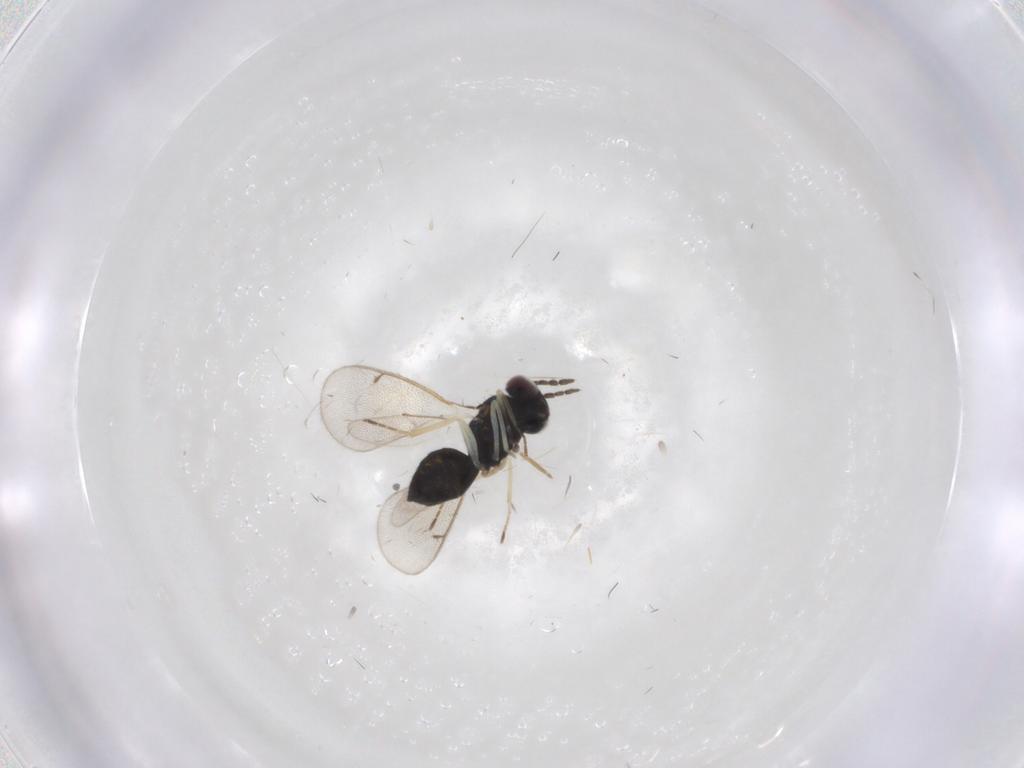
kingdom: Animalia
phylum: Arthropoda
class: Insecta
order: Hymenoptera
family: Eulophidae
